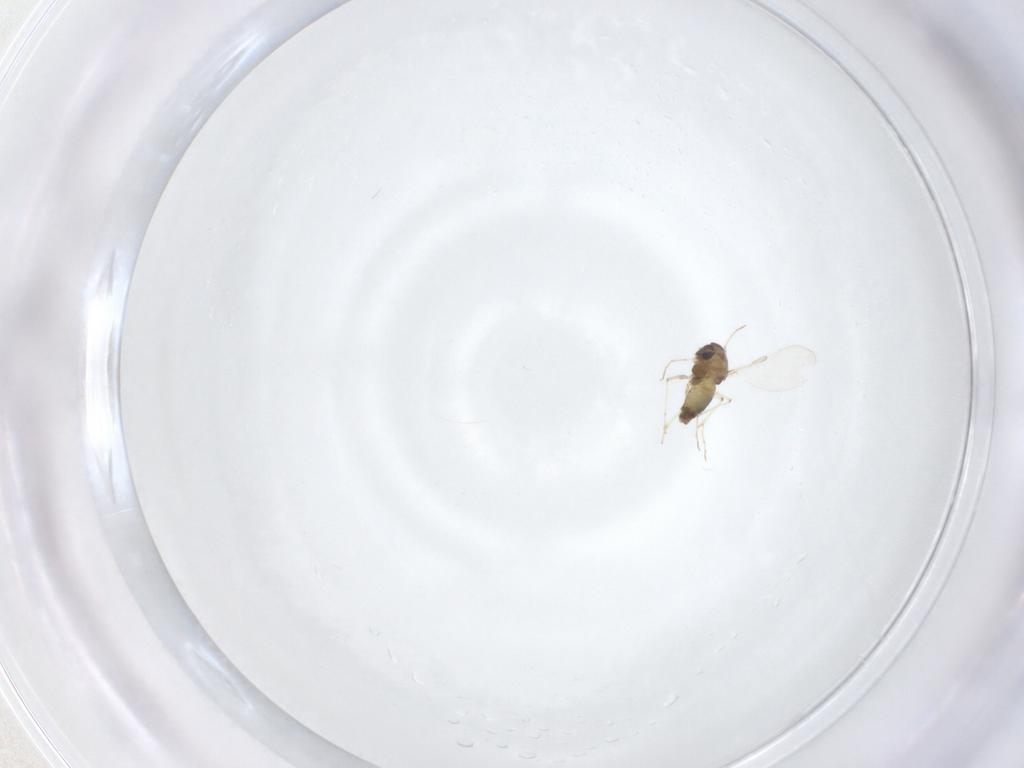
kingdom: Animalia
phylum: Arthropoda
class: Insecta
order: Diptera
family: Chironomidae
